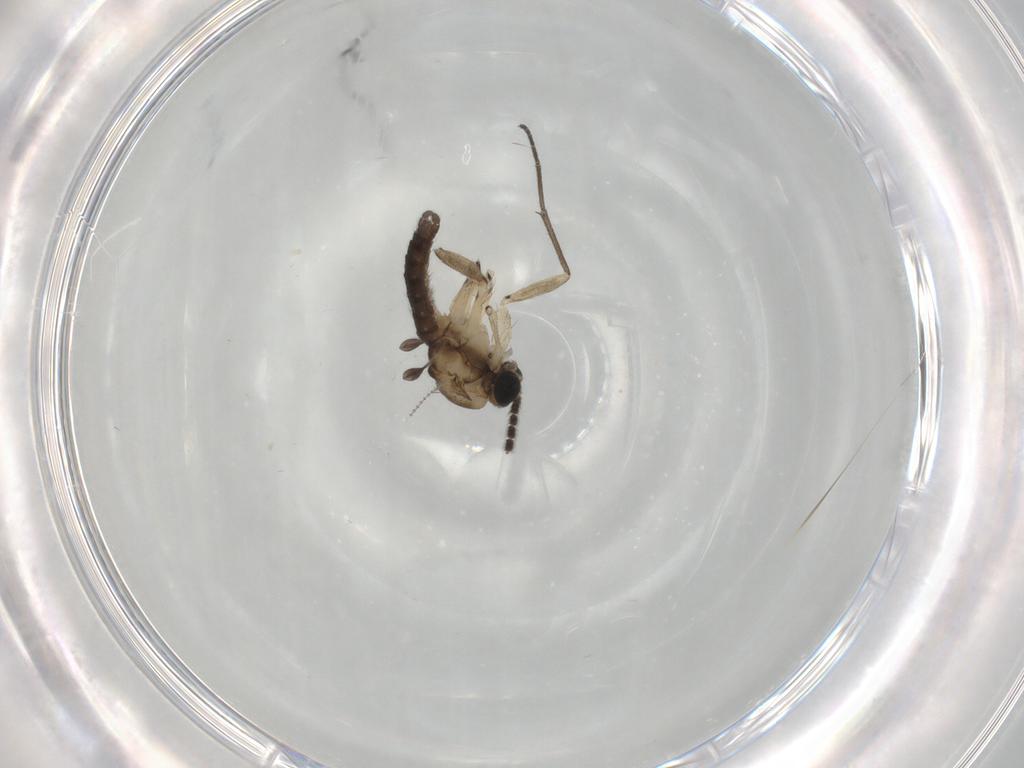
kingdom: Animalia
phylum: Arthropoda
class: Insecta
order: Diptera
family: Sciaridae
